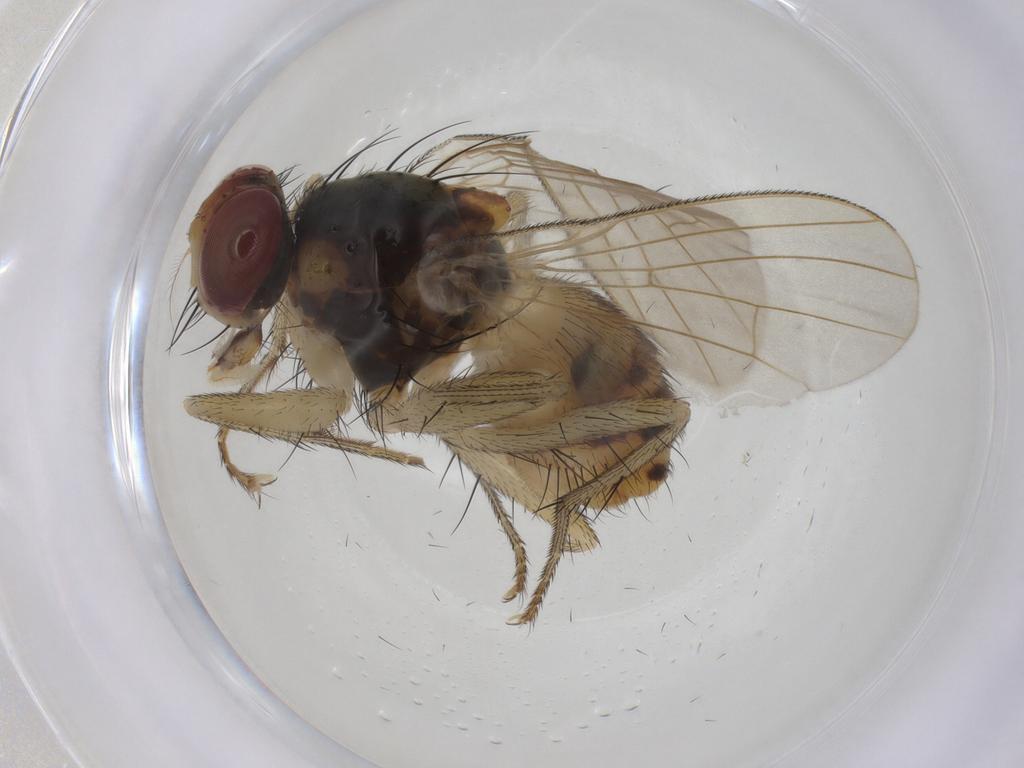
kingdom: Animalia
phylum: Arthropoda
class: Insecta
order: Diptera
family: Muscidae
